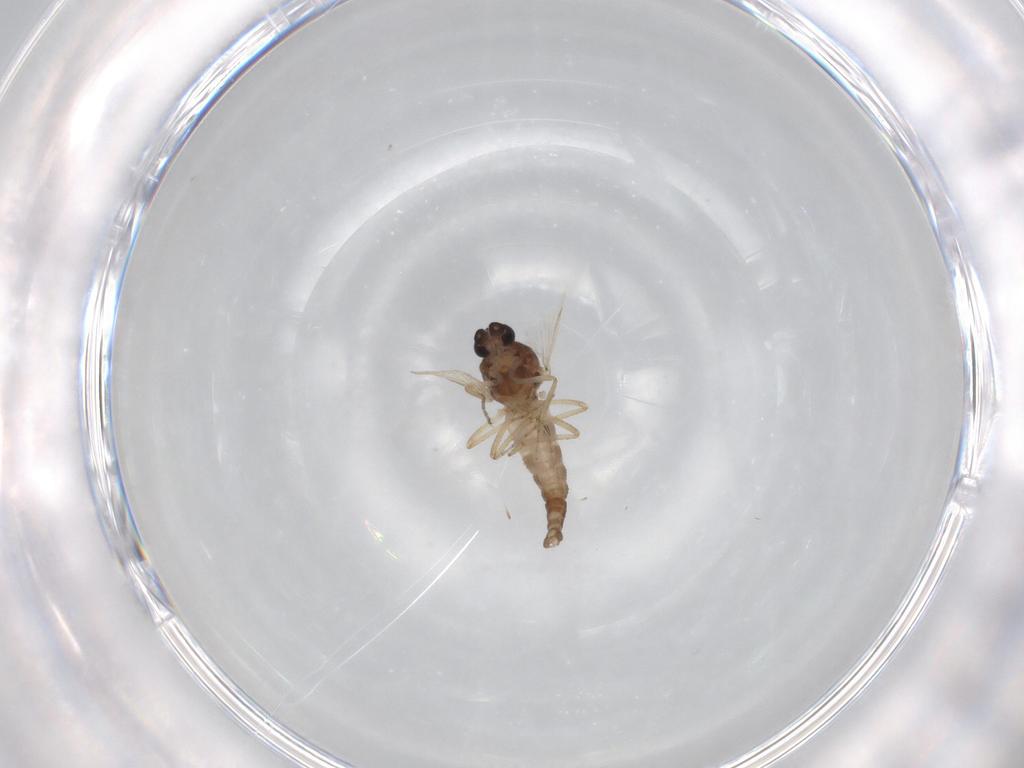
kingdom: Animalia
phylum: Arthropoda
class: Insecta
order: Diptera
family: Ceratopogonidae
